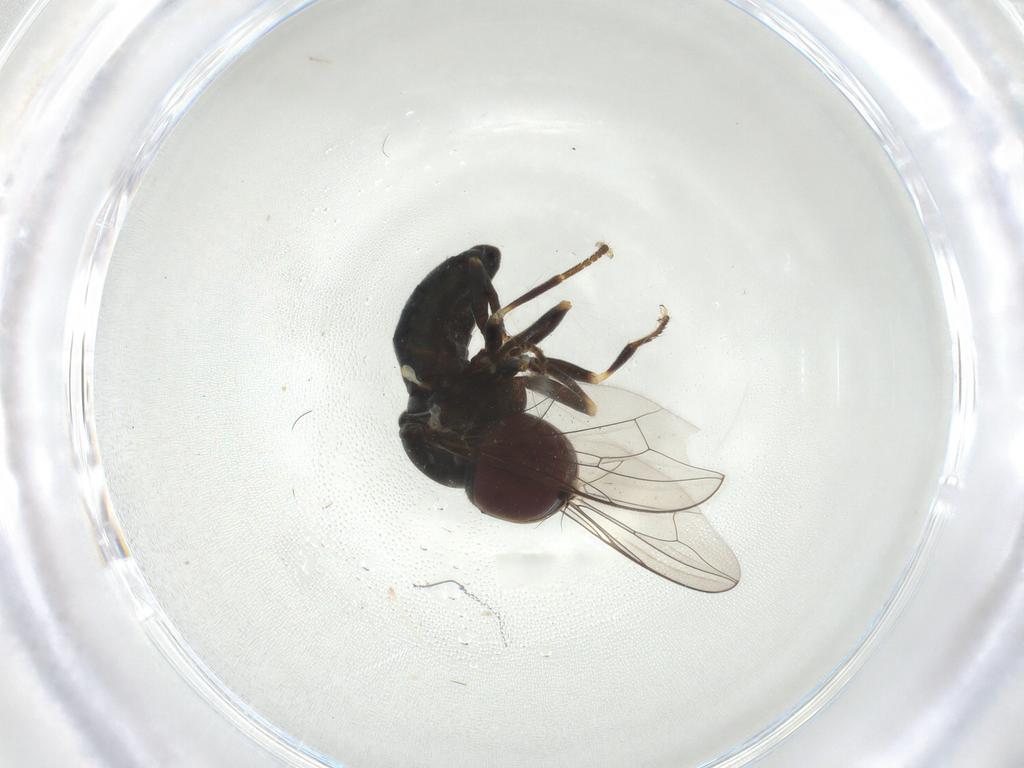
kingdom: Animalia
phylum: Arthropoda
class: Insecta
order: Diptera
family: Pipunculidae
